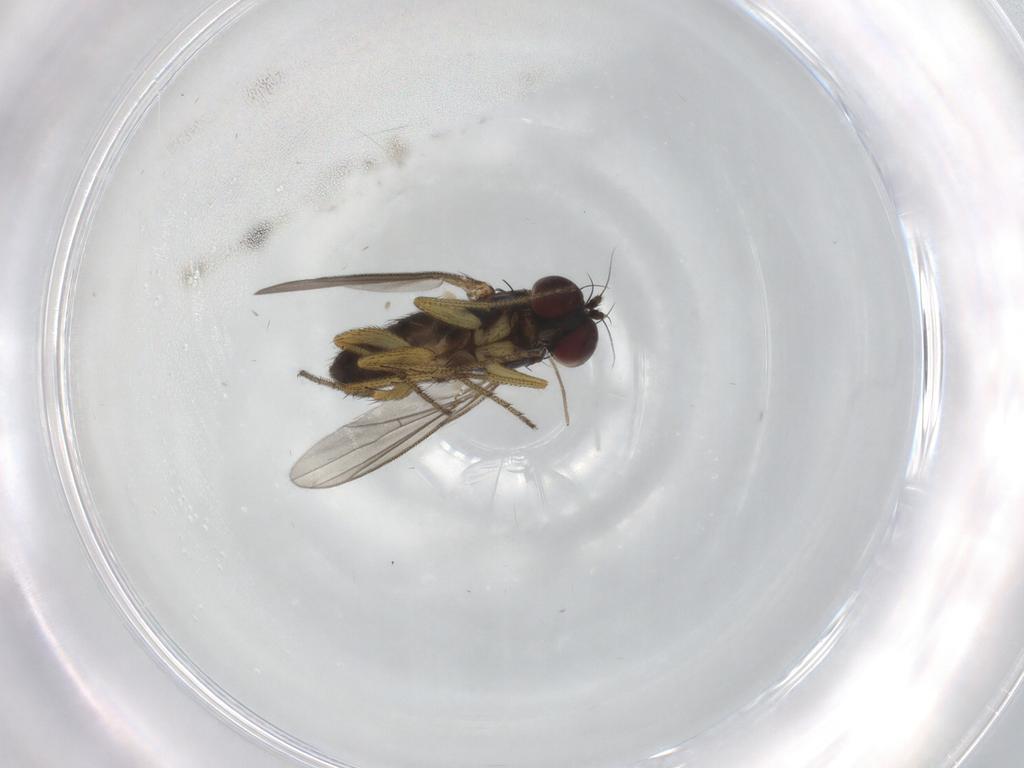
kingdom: Animalia
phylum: Arthropoda
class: Insecta
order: Diptera
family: Dolichopodidae
